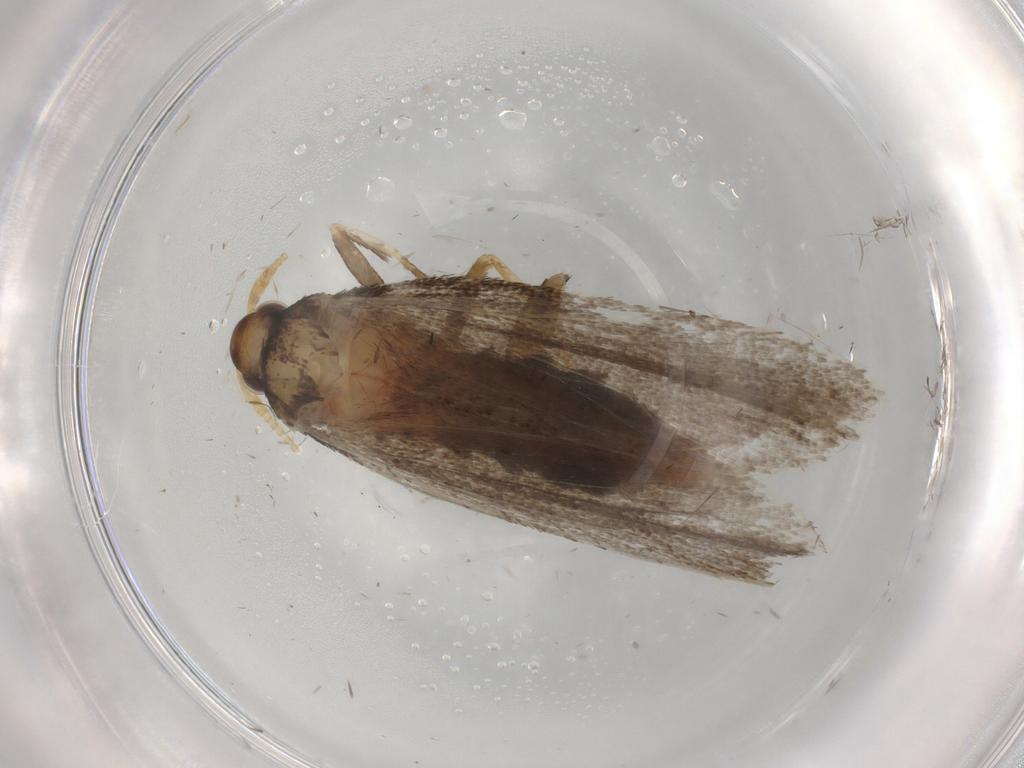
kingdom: Animalia
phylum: Arthropoda
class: Insecta
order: Lepidoptera
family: Lecithoceridae
